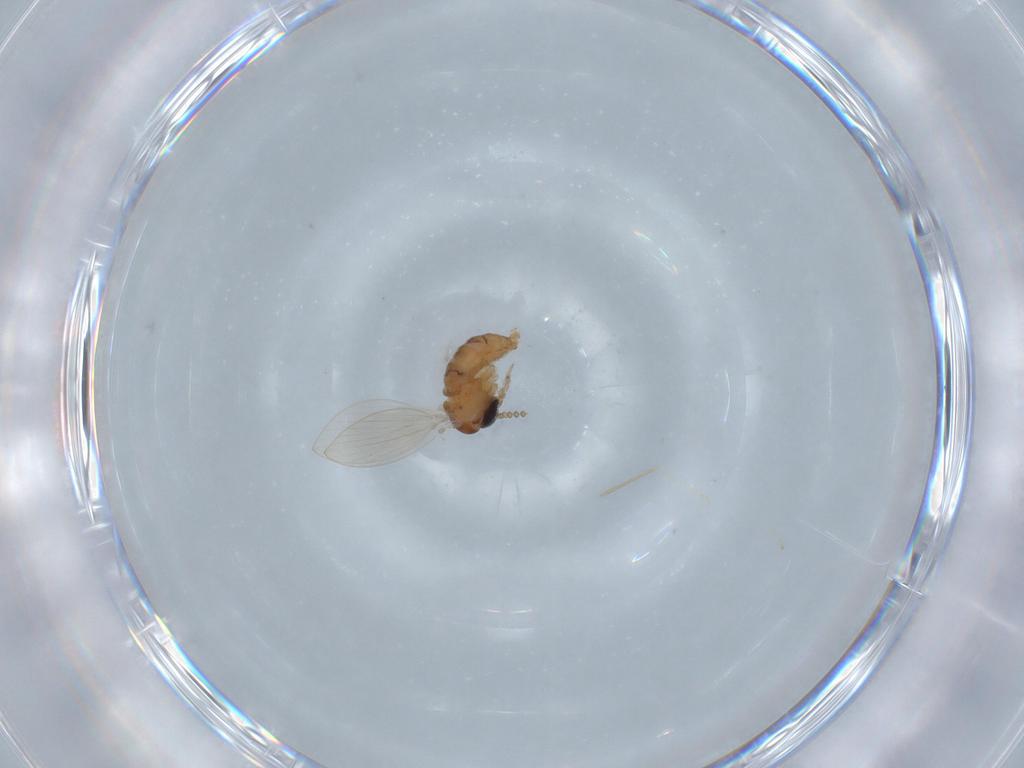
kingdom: Animalia
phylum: Arthropoda
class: Insecta
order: Diptera
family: Psychodidae
